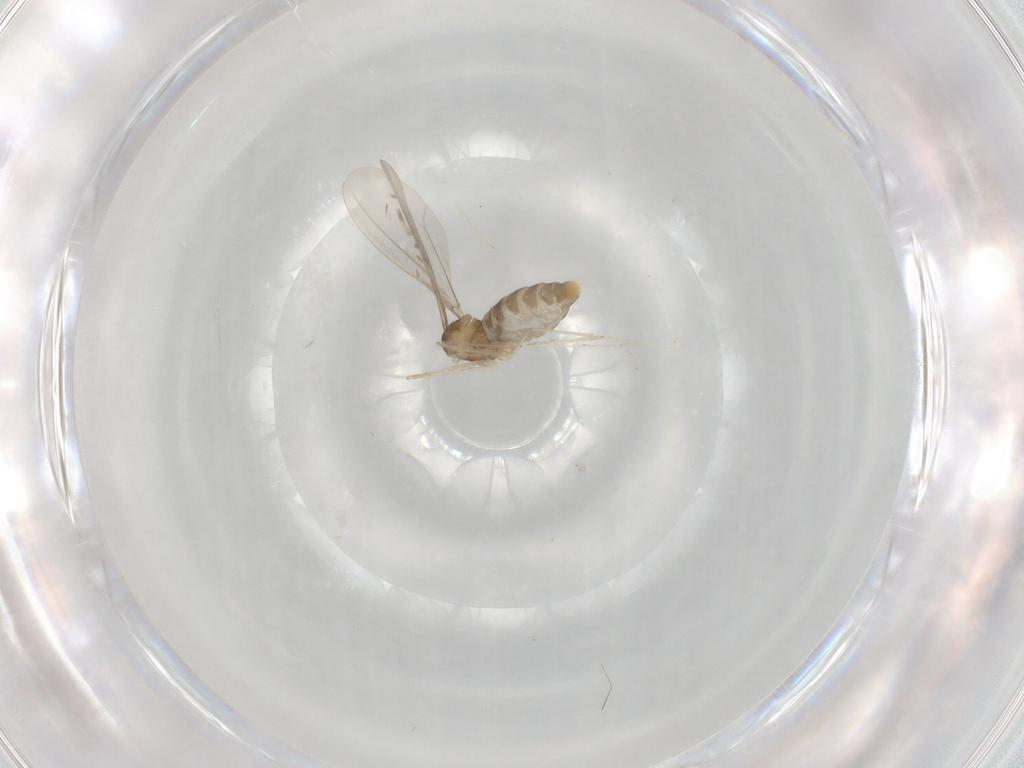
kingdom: Animalia
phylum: Arthropoda
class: Insecta
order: Diptera
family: Cecidomyiidae
